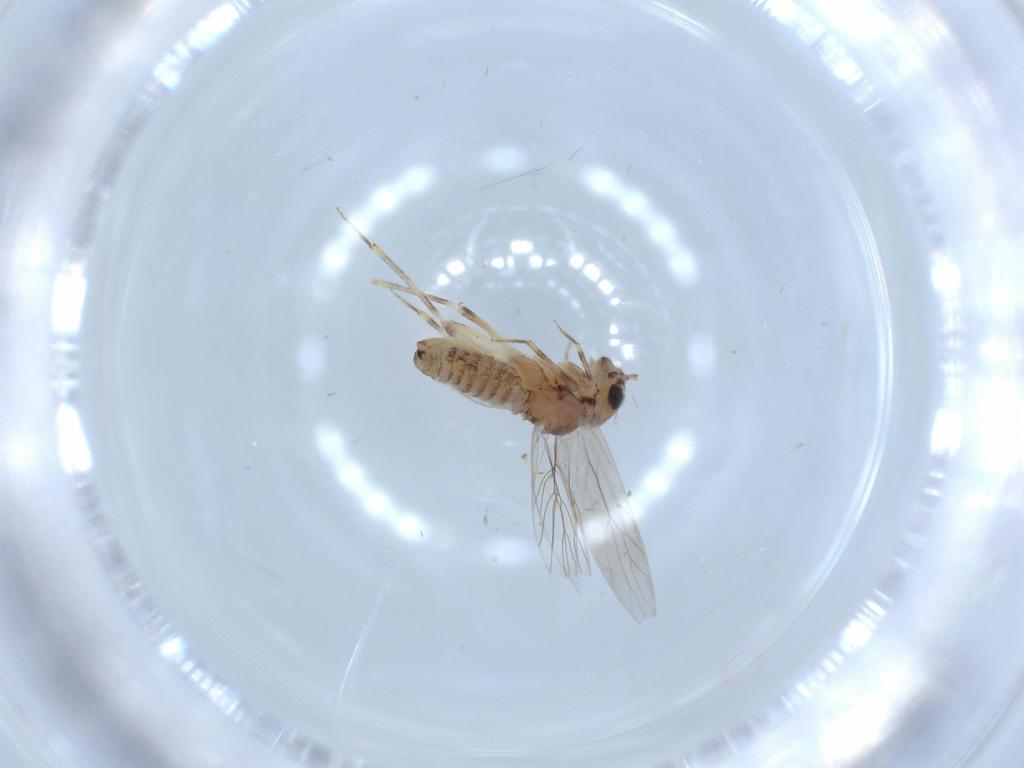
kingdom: Animalia
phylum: Arthropoda
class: Insecta
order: Psocodea
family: Lepidopsocidae
